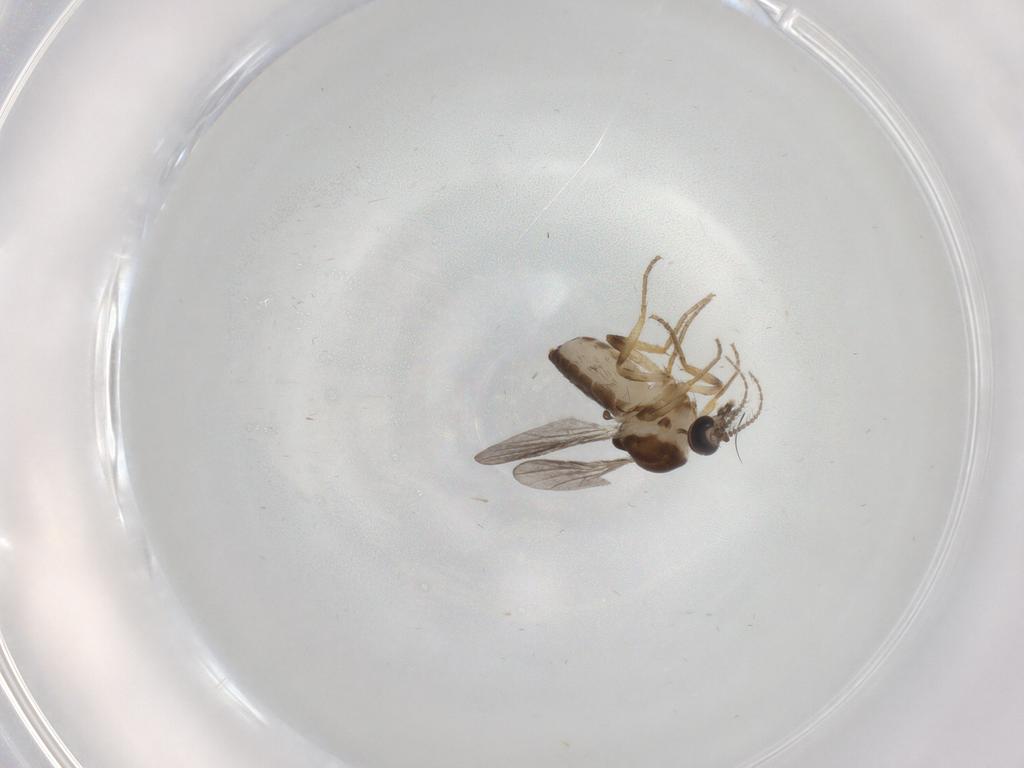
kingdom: Animalia
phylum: Arthropoda
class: Insecta
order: Diptera
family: Ceratopogonidae
